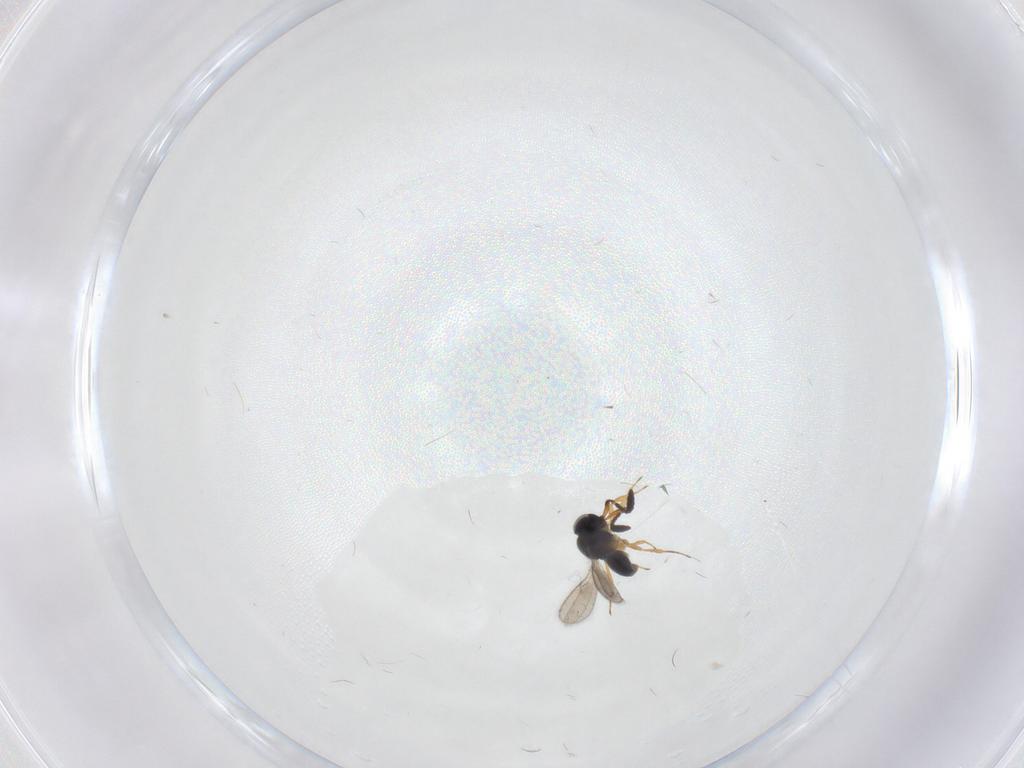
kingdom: Animalia
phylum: Arthropoda
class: Insecta
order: Hymenoptera
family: Scelionidae
